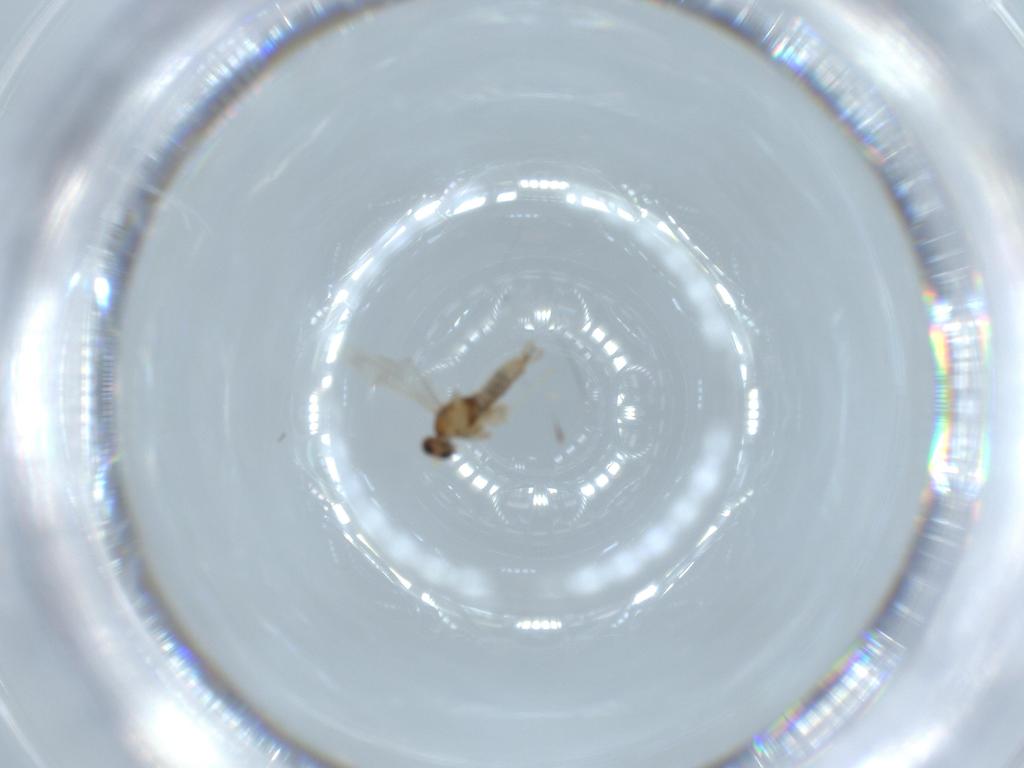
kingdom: Animalia
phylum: Arthropoda
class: Insecta
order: Diptera
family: Cecidomyiidae
